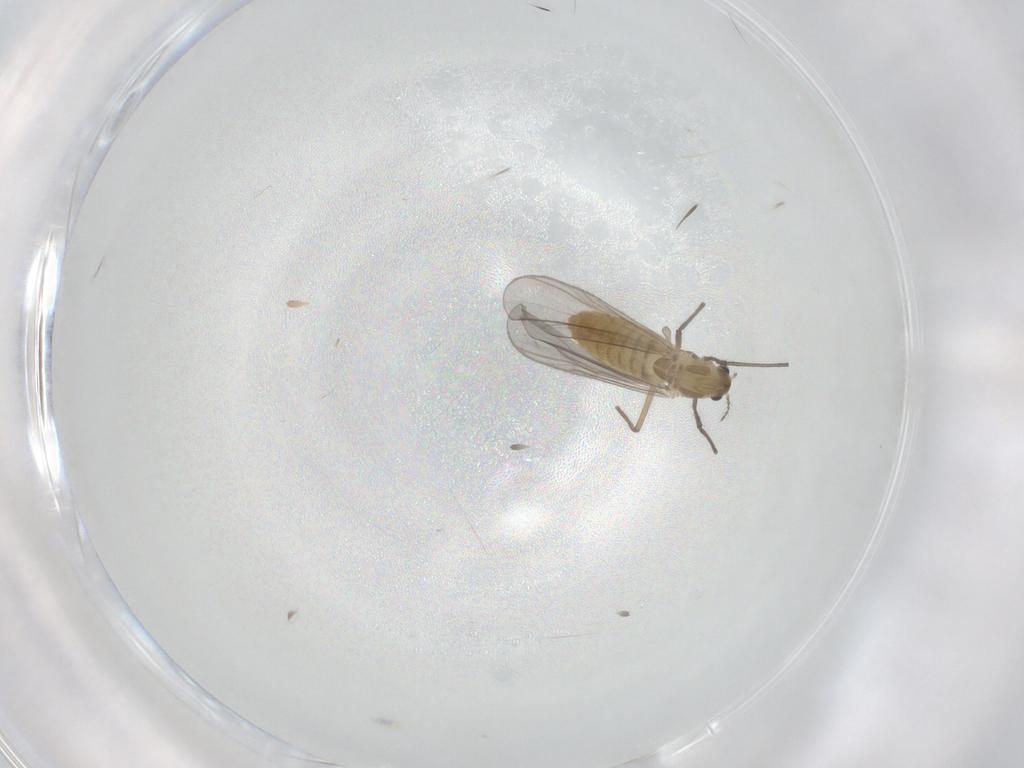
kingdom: Animalia
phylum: Arthropoda
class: Insecta
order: Diptera
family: Chironomidae
